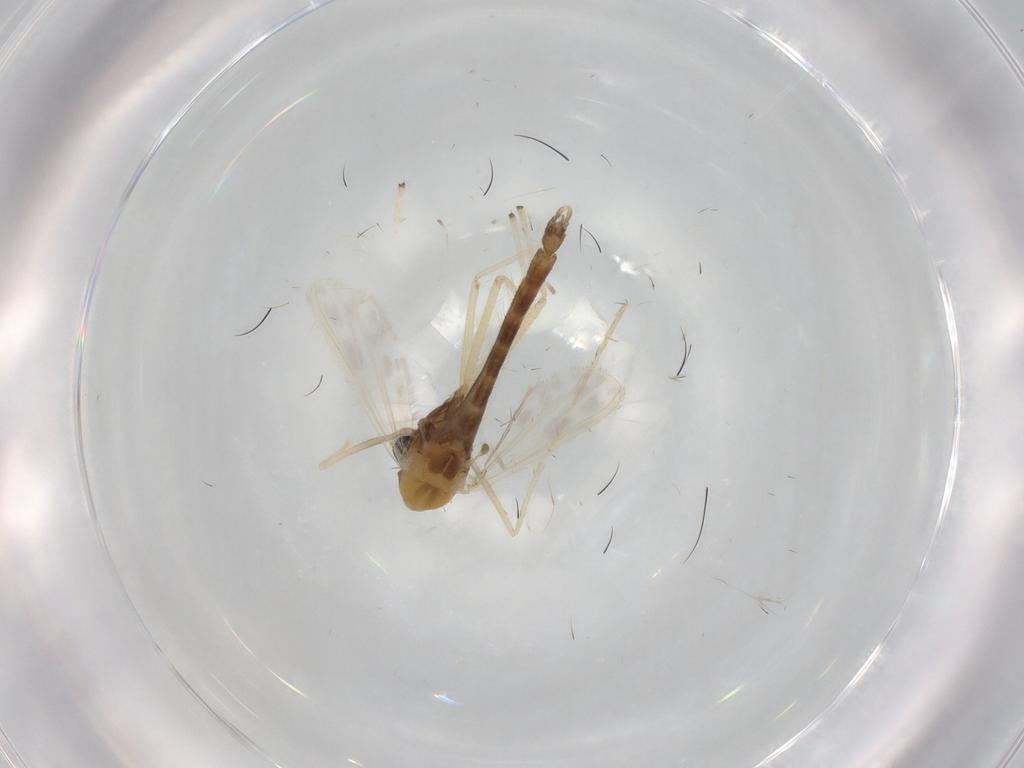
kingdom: Animalia
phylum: Arthropoda
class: Insecta
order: Diptera
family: Chironomidae
